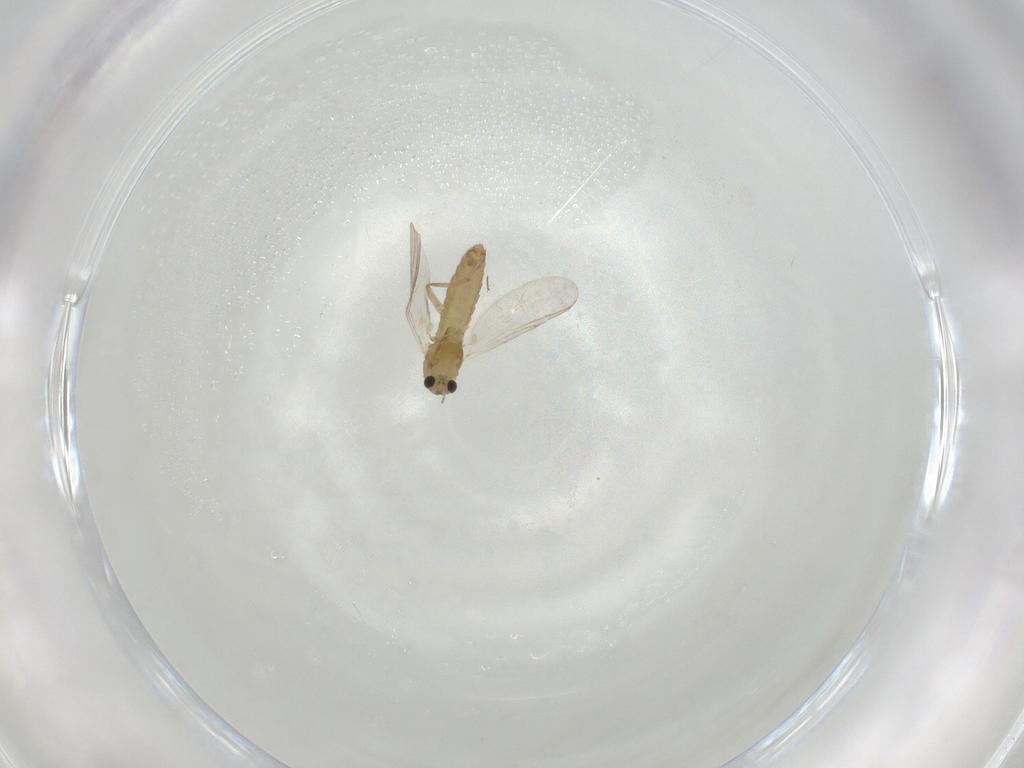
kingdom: Animalia
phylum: Arthropoda
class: Insecta
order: Diptera
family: Chironomidae
